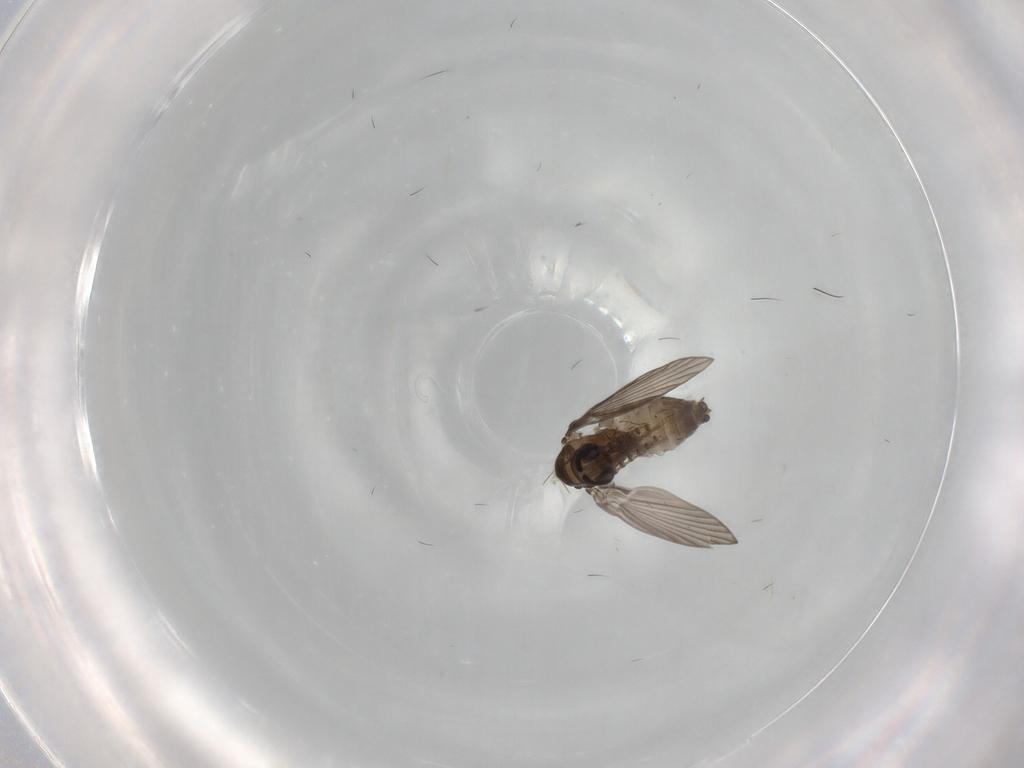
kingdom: Animalia
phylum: Arthropoda
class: Insecta
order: Diptera
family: Psychodidae
